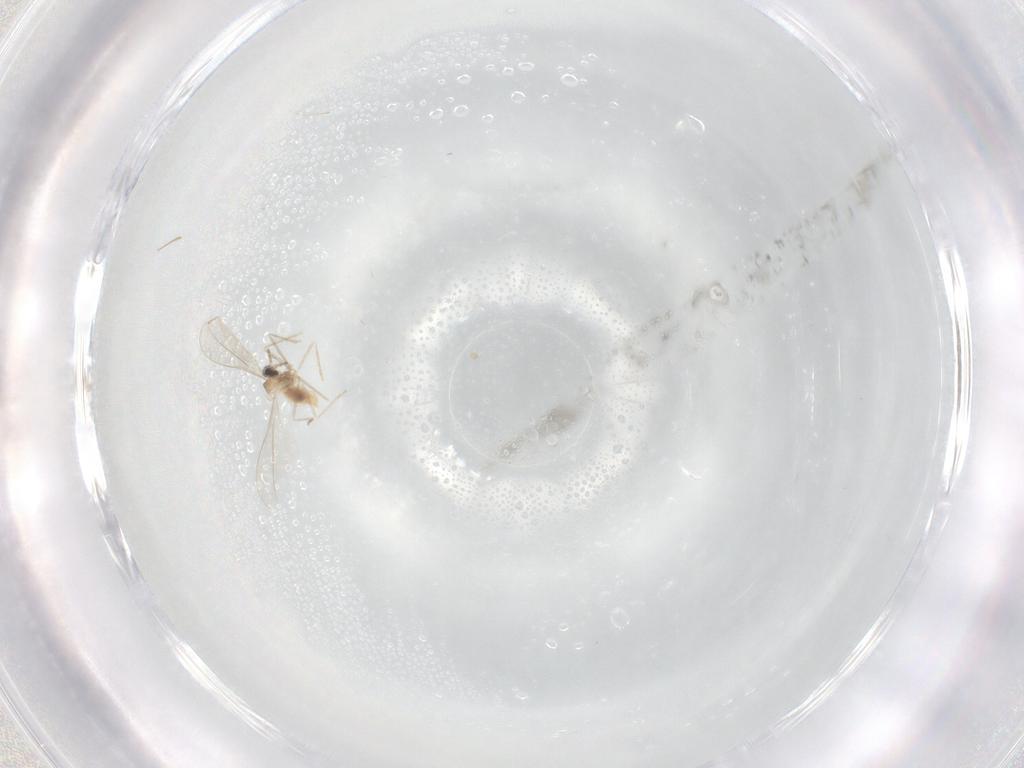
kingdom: Animalia
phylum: Arthropoda
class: Insecta
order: Diptera
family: Cecidomyiidae
